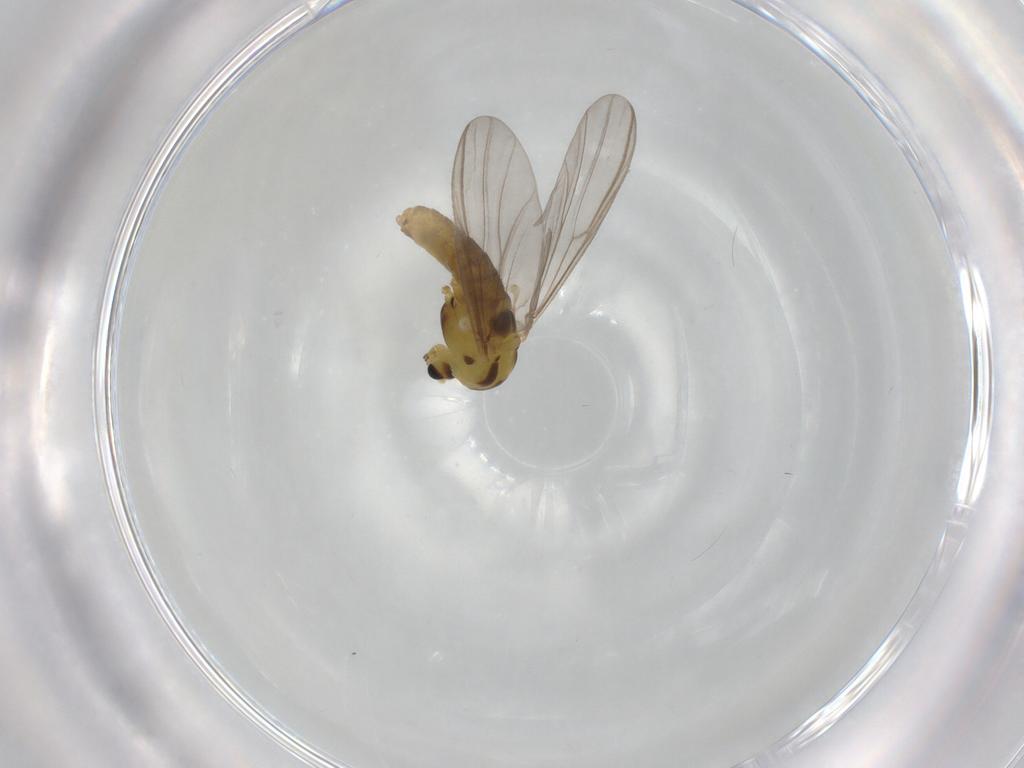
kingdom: Animalia
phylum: Arthropoda
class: Insecta
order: Diptera
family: Chironomidae
